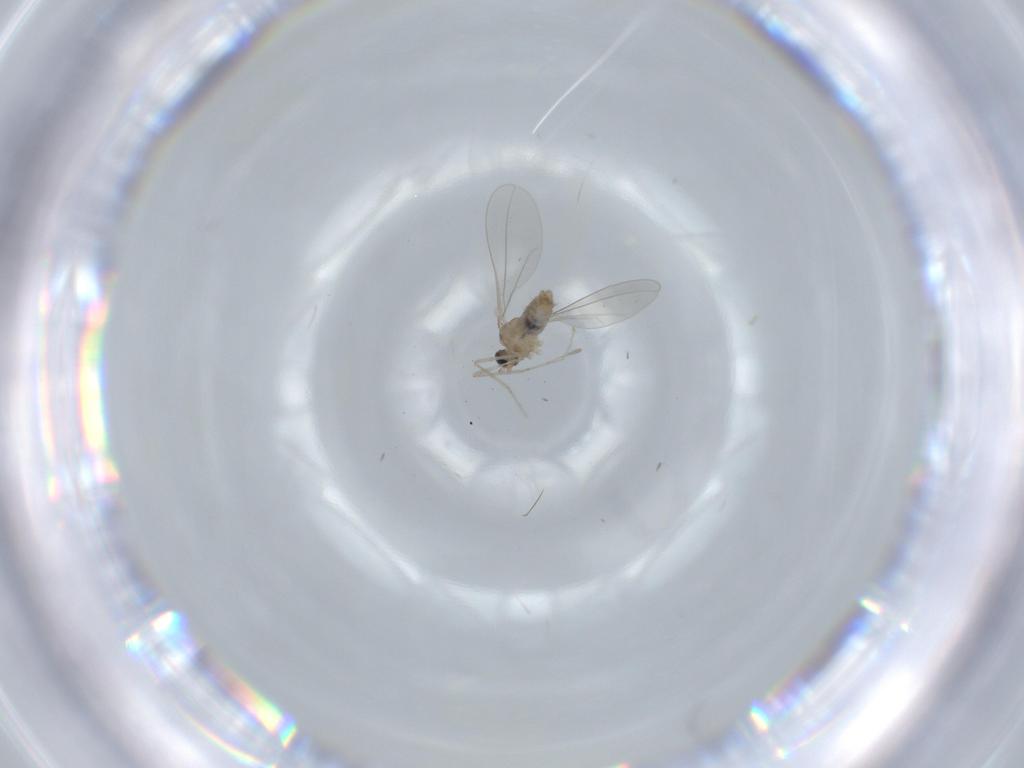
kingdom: Animalia
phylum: Arthropoda
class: Insecta
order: Diptera
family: Cecidomyiidae
